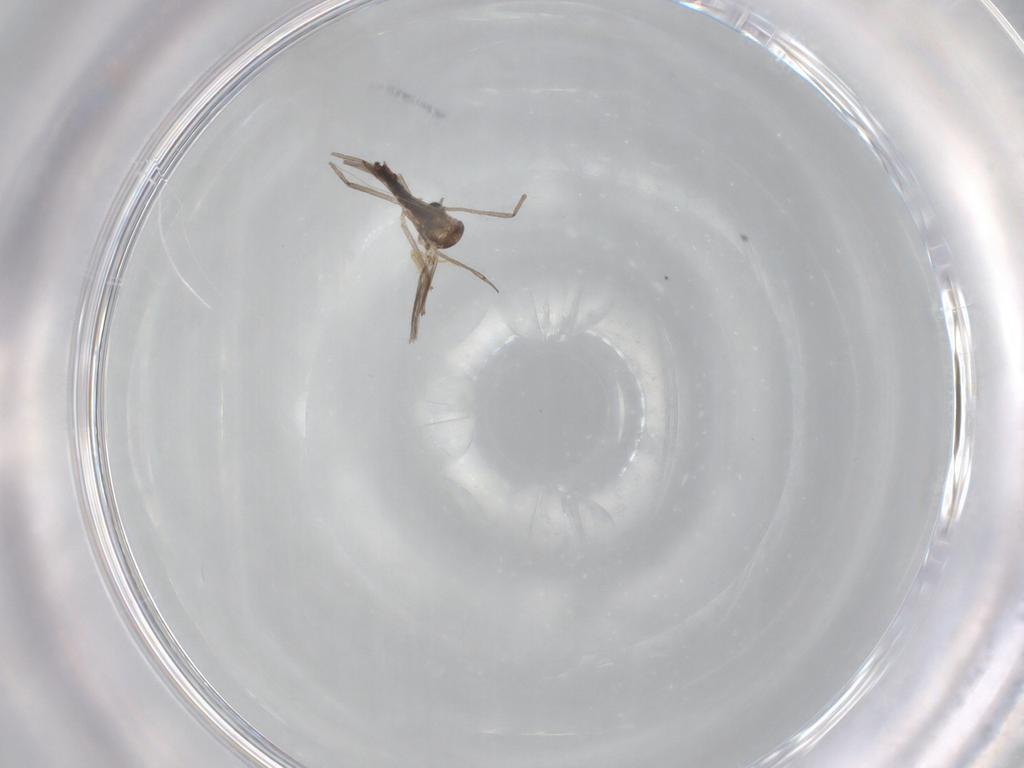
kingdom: Animalia
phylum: Arthropoda
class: Insecta
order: Diptera
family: Chironomidae
